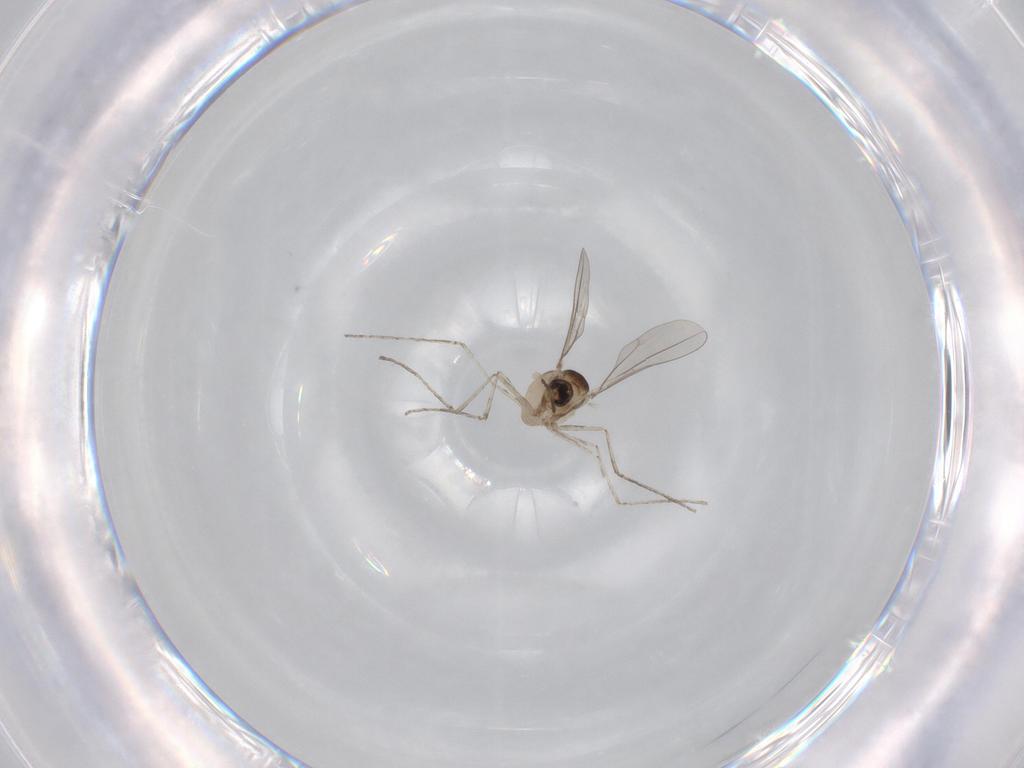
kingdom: Animalia
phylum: Arthropoda
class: Insecta
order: Diptera
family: Cecidomyiidae
